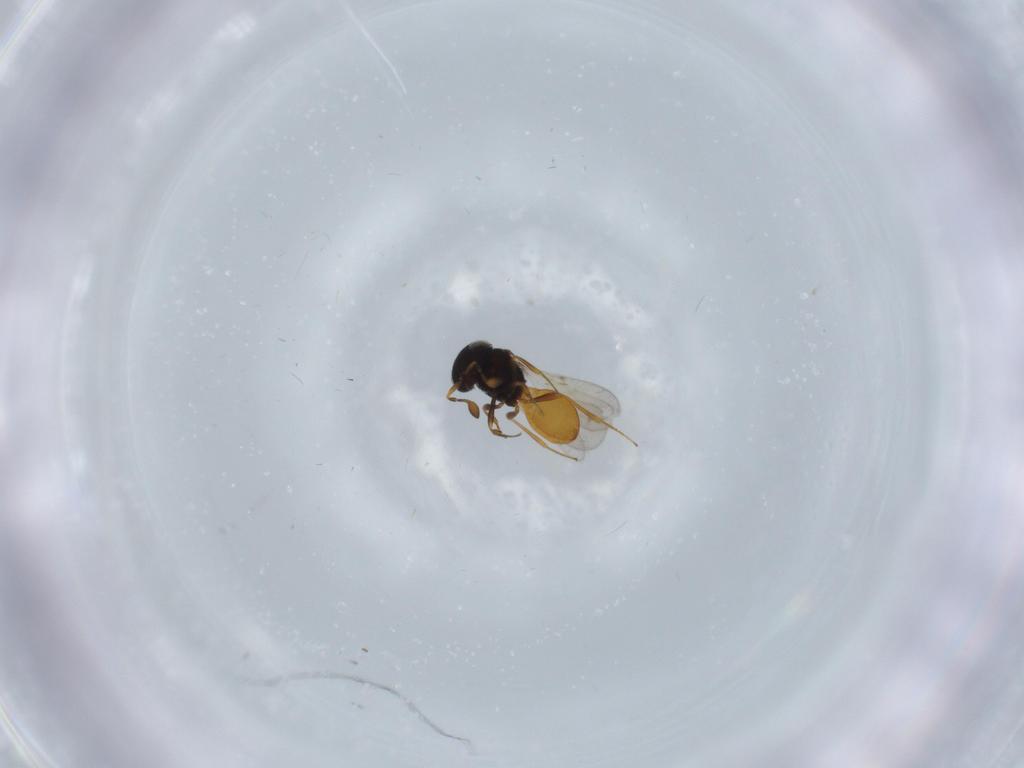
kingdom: Animalia
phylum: Arthropoda
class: Insecta
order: Hymenoptera
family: Scelionidae
